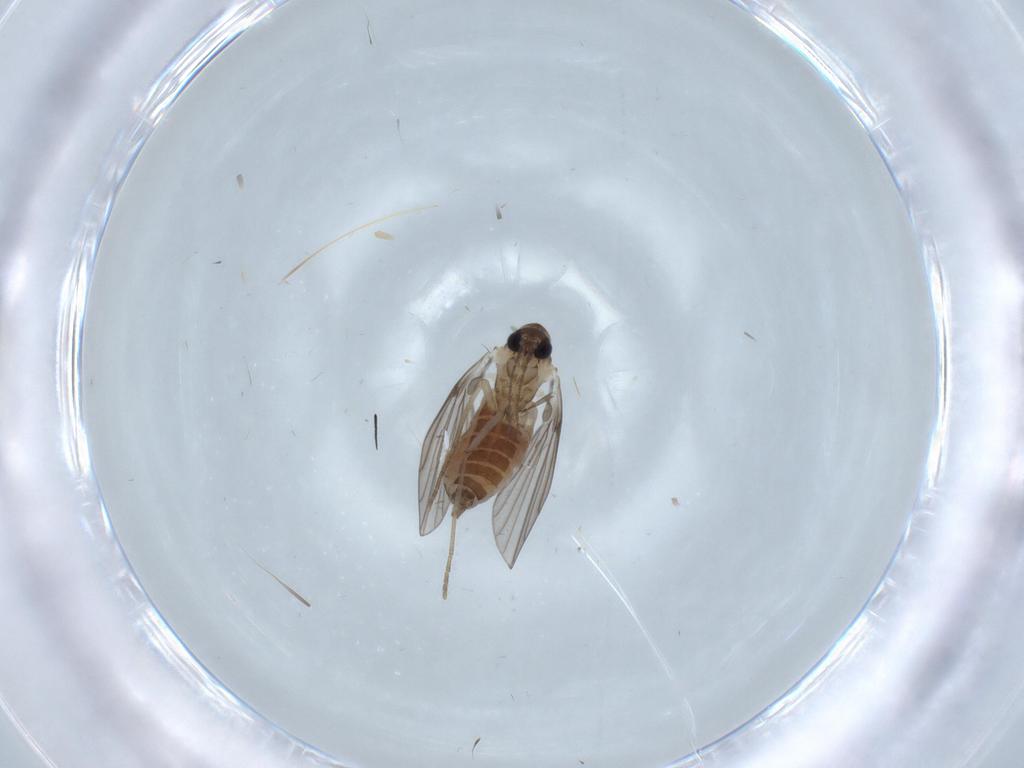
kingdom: Animalia
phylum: Arthropoda
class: Insecta
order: Diptera
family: Cecidomyiidae
